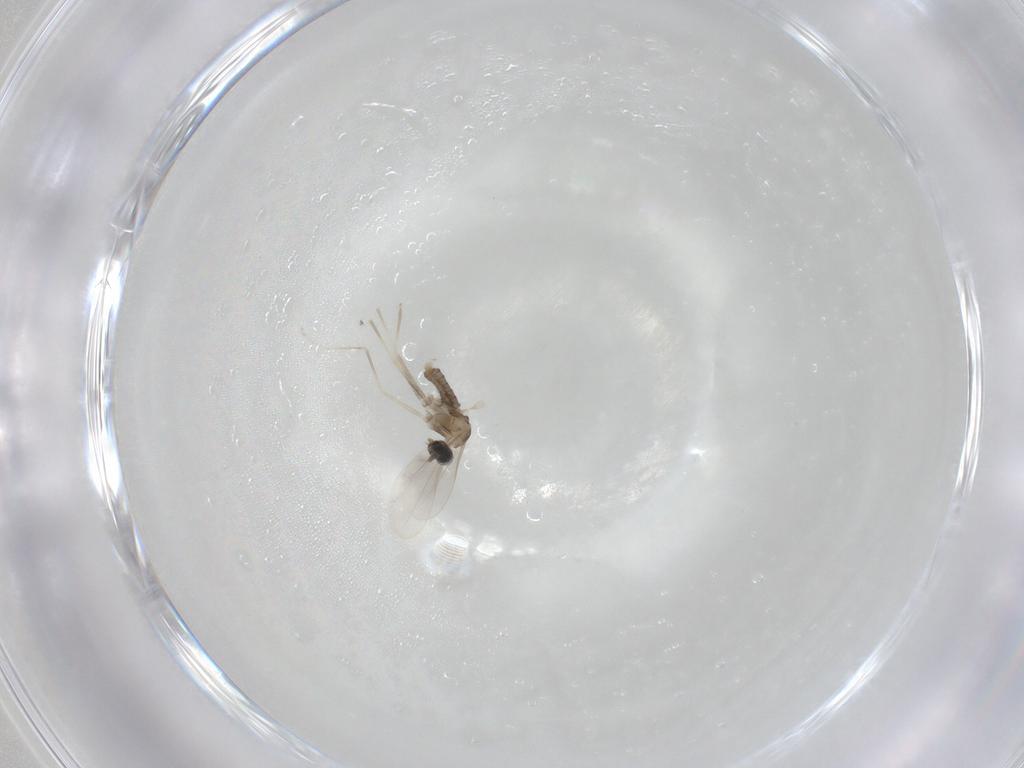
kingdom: Animalia
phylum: Arthropoda
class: Insecta
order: Diptera
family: Cecidomyiidae
